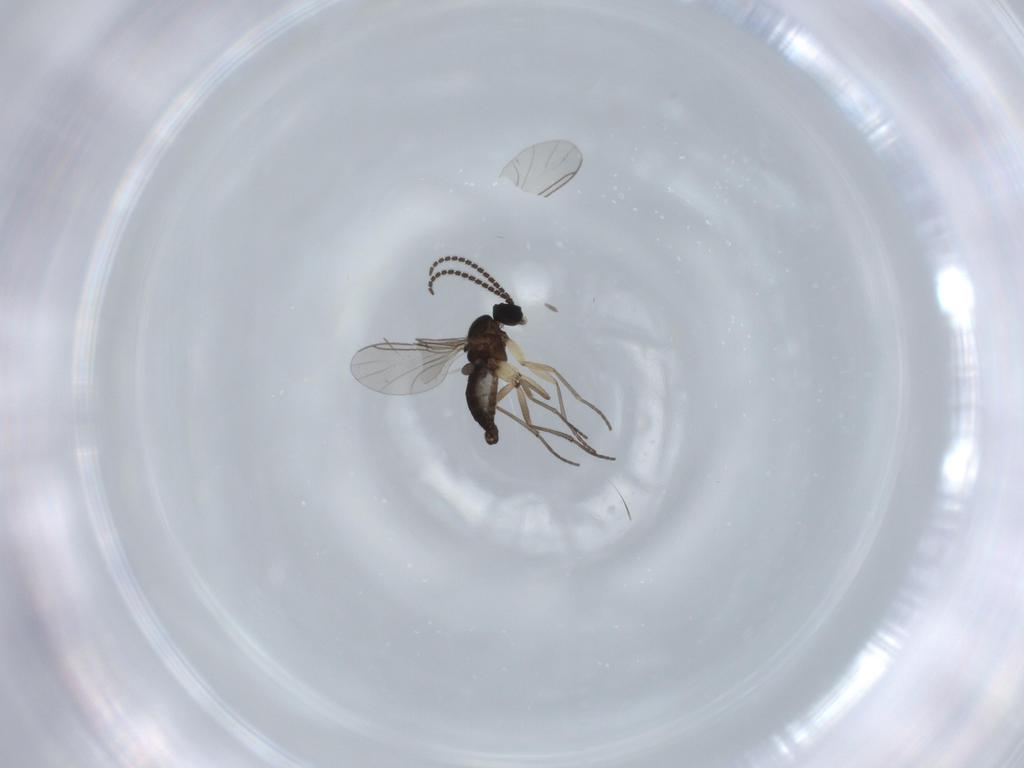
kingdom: Animalia
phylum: Arthropoda
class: Insecta
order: Diptera
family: Sciaridae
